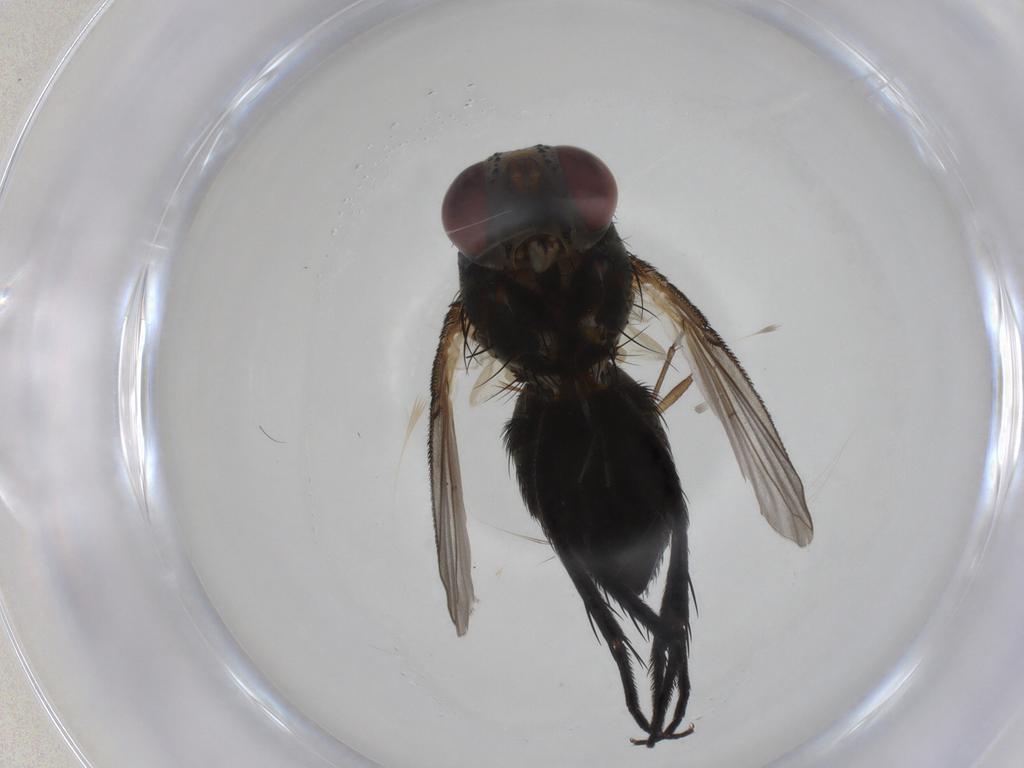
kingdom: Animalia
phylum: Arthropoda
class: Insecta
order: Diptera
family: Tachinidae
